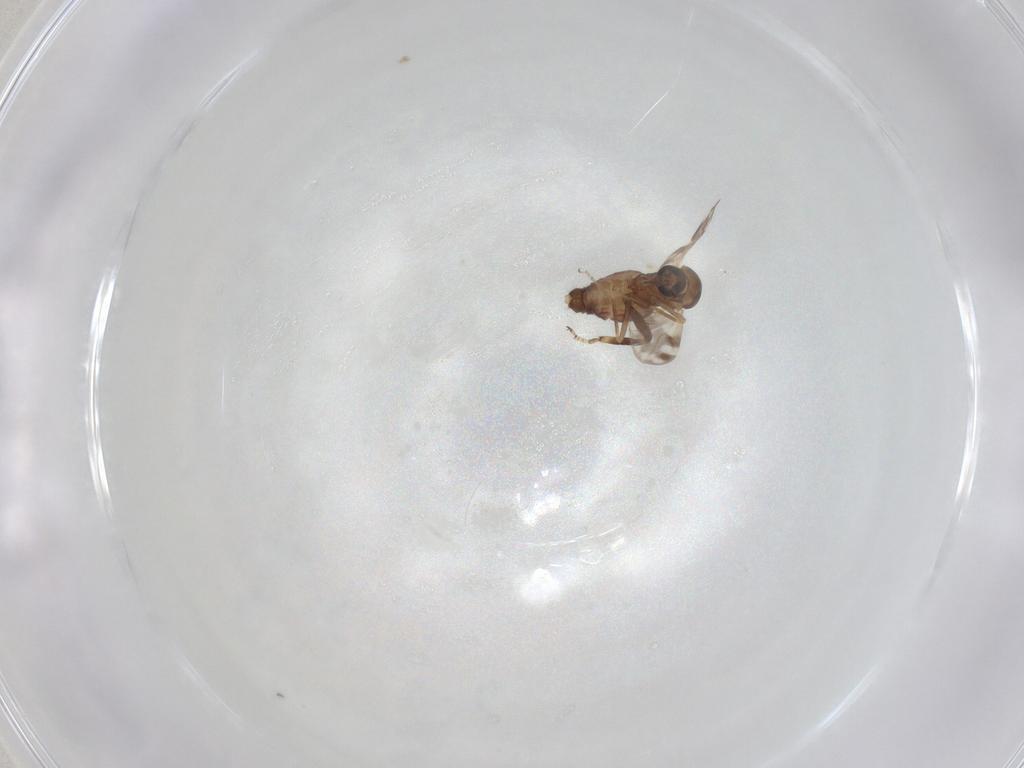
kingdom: Animalia
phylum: Arthropoda
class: Insecta
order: Diptera
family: Ceratopogonidae
